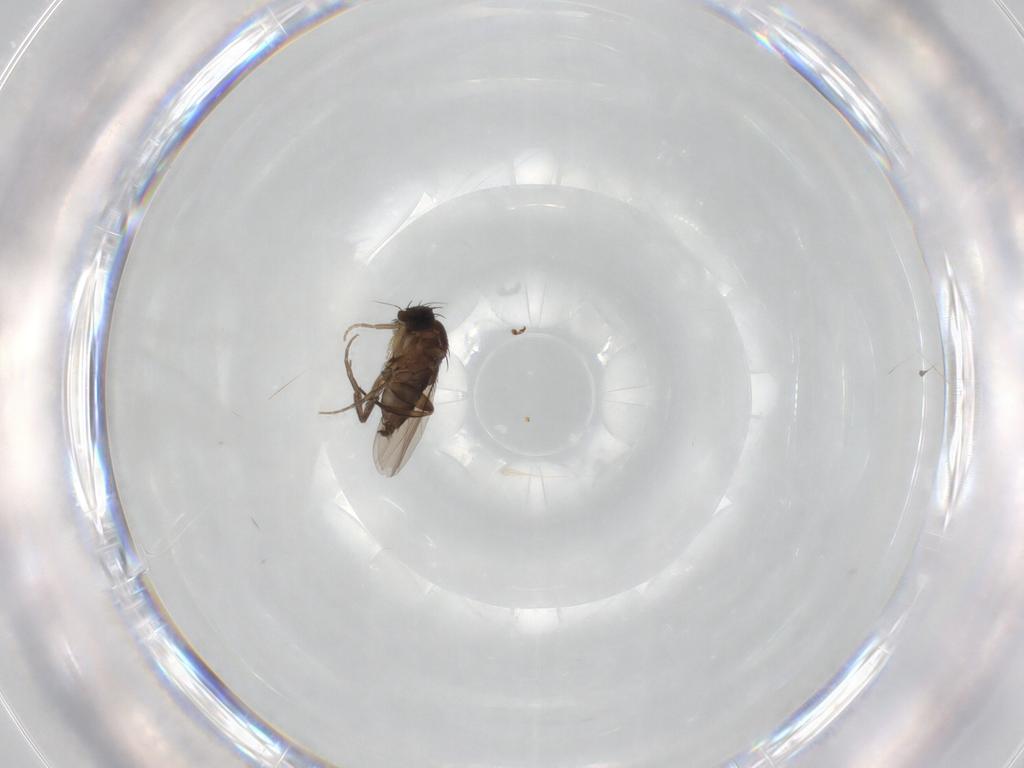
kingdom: Animalia
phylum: Arthropoda
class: Insecta
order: Diptera
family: Phoridae
